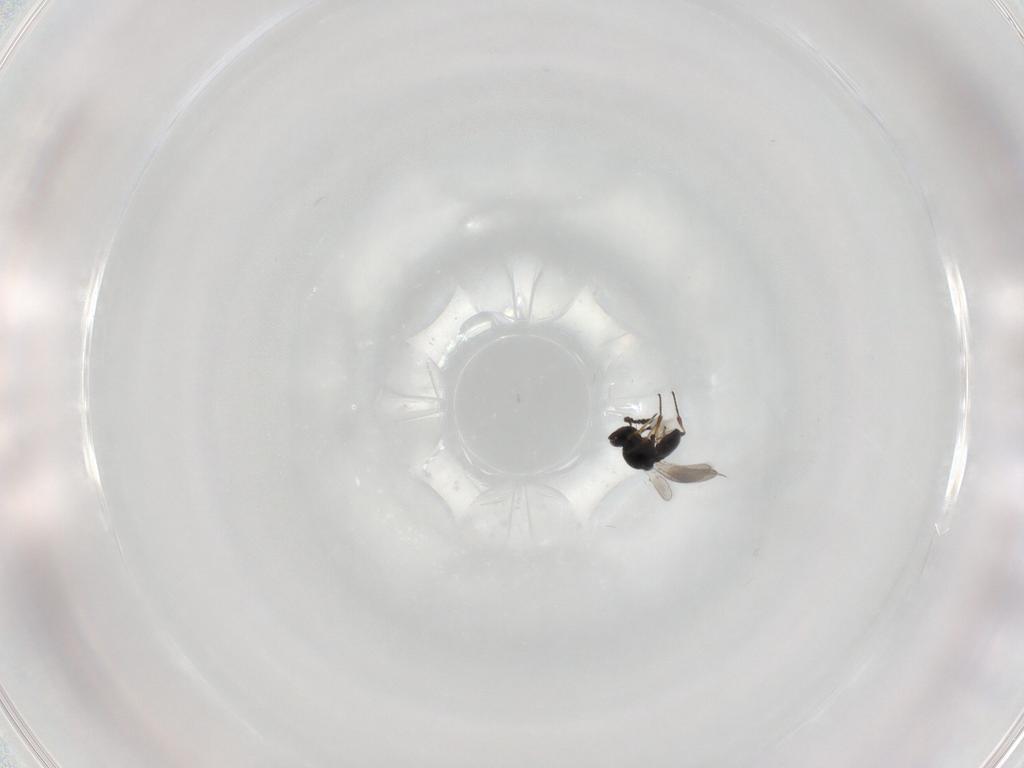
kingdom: Animalia
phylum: Arthropoda
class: Insecta
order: Hymenoptera
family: Platygastridae
